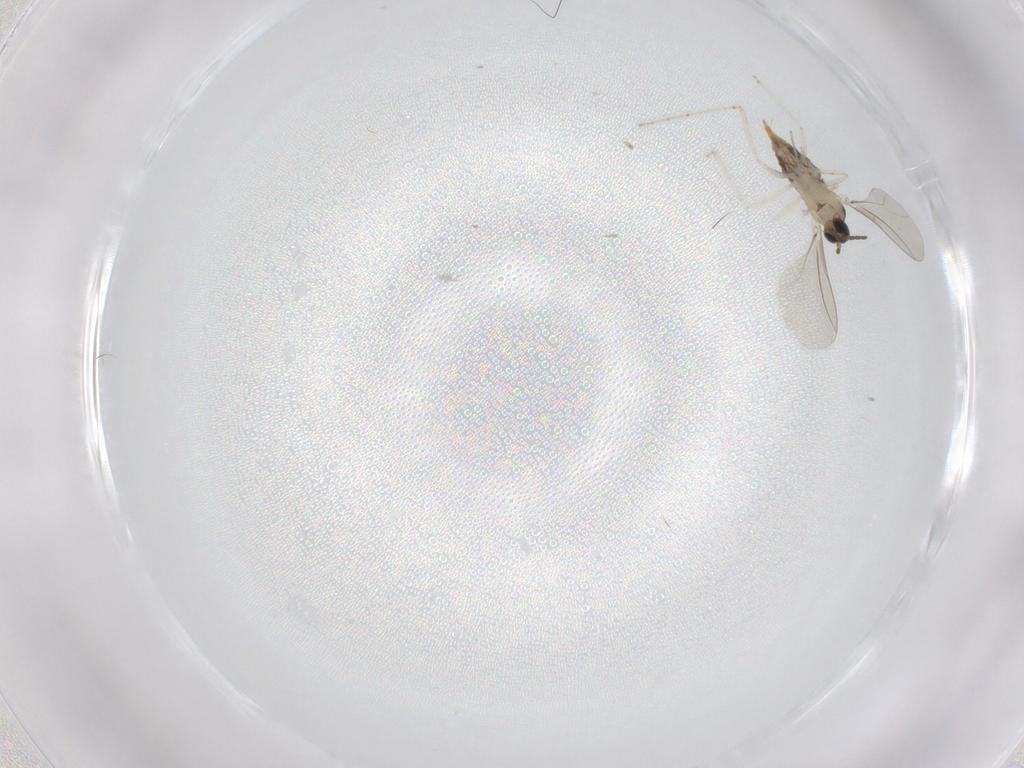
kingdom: Animalia
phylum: Arthropoda
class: Insecta
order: Diptera
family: Cecidomyiidae
